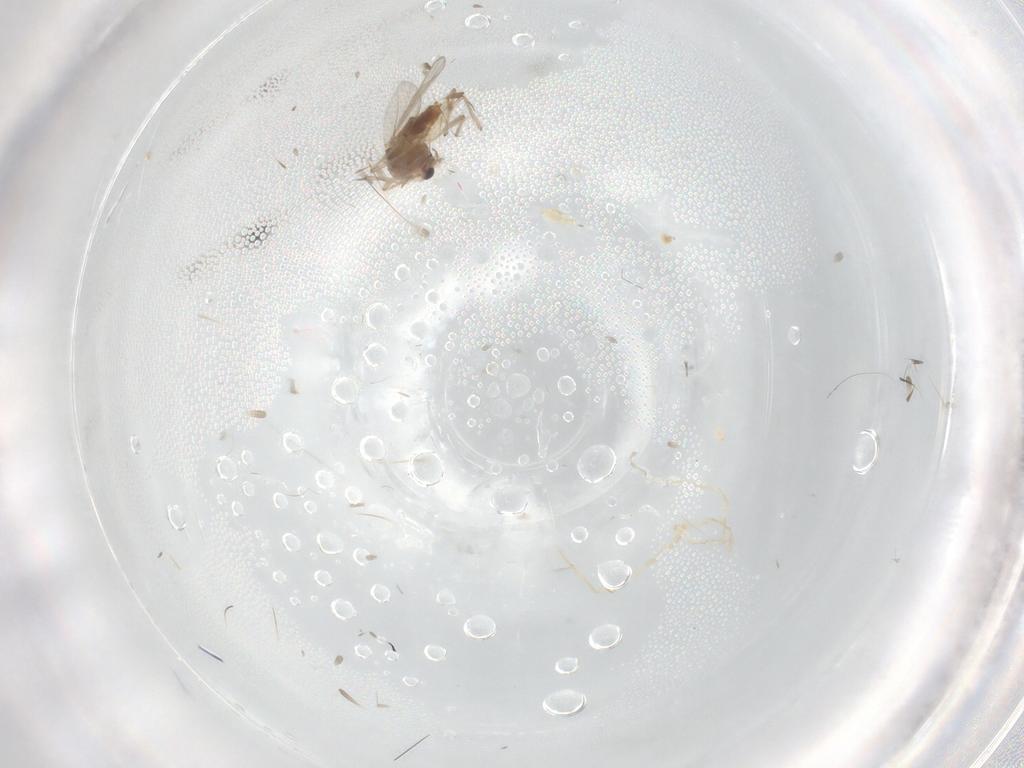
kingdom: Animalia
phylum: Arthropoda
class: Insecta
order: Diptera
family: Chironomidae
